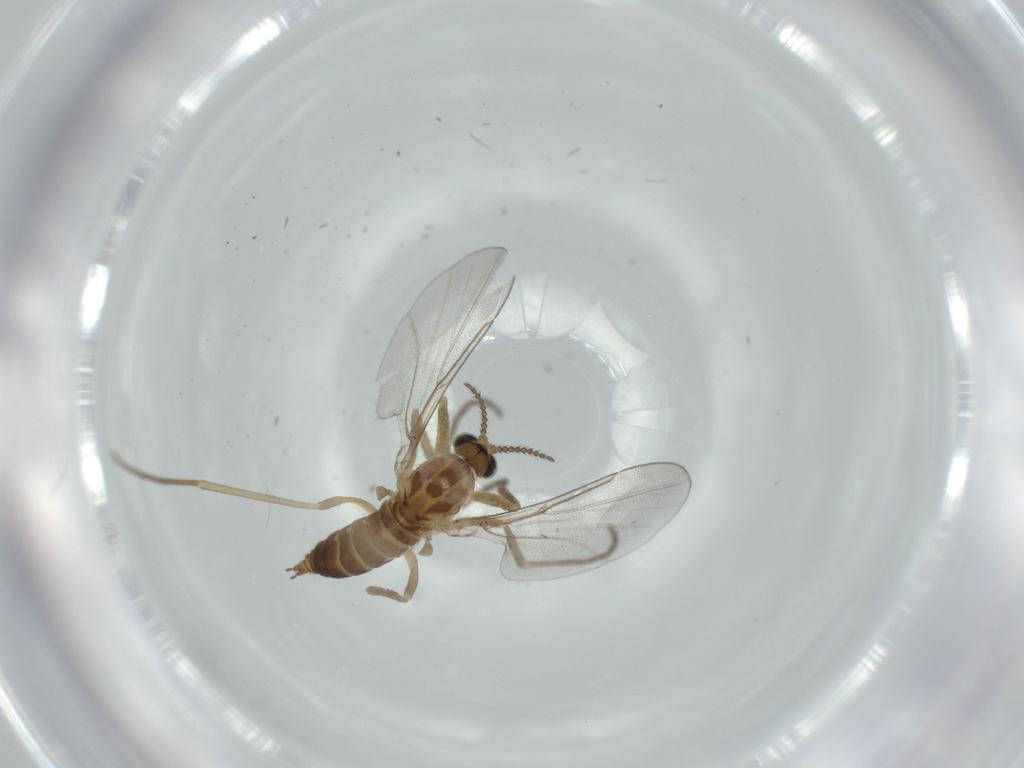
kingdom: Animalia
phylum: Arthropoda
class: Insecta
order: Diptera
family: Cecidomyiidae
